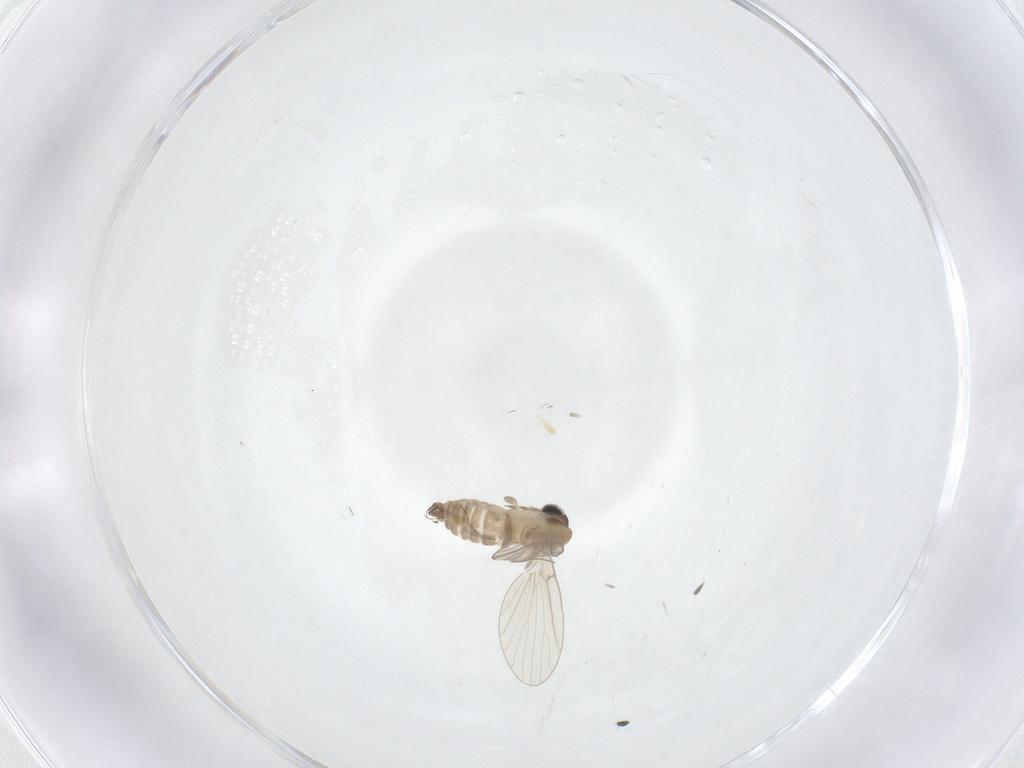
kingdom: Animalia
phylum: Arthropoda
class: Insecta
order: Diptera
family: Psychodidae
